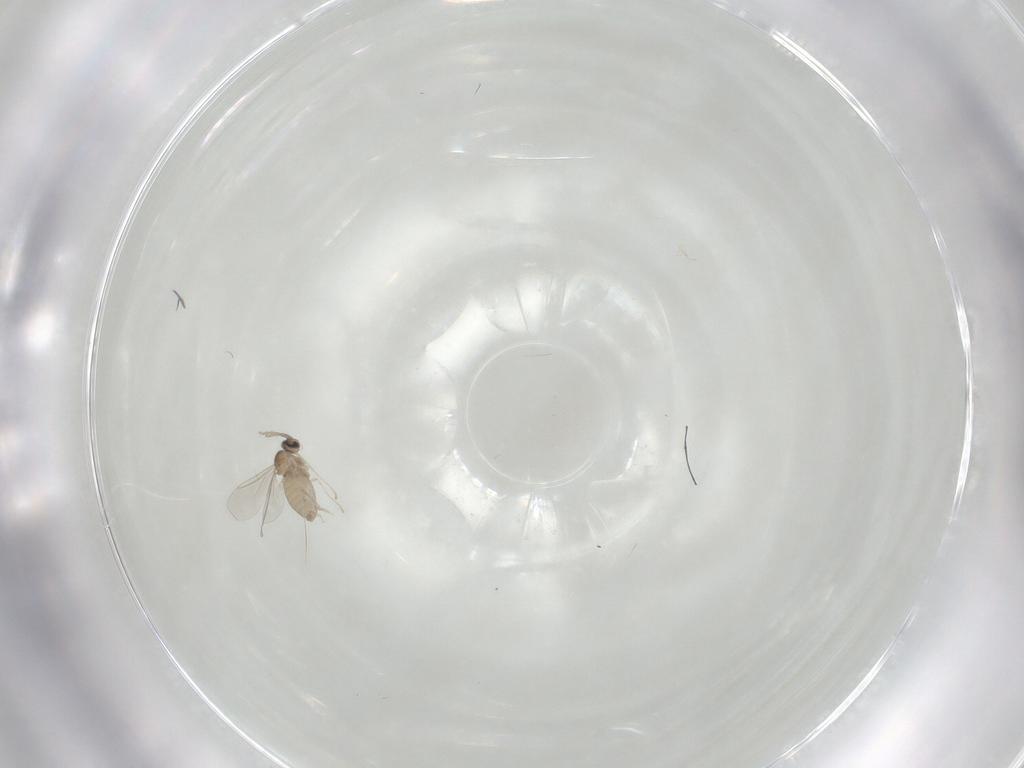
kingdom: Animalia
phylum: Arthropoda
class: Insecta
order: Diptera
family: Cecidomyiidae
